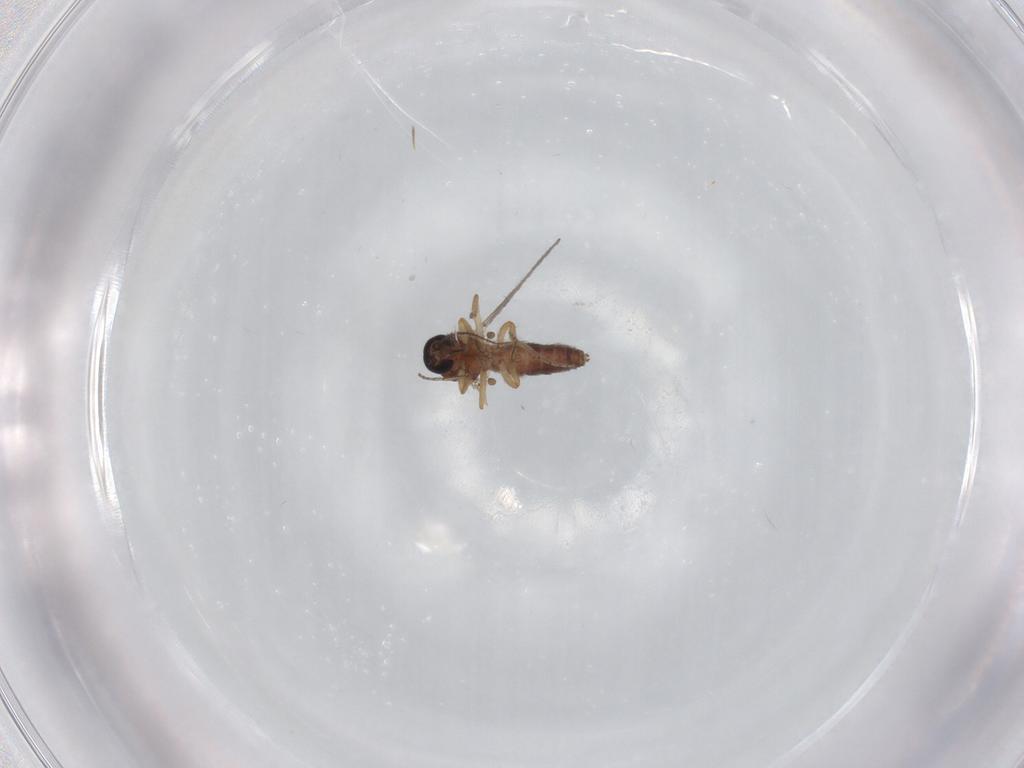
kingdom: Animalia
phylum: Arthropoda
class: Insecta
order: Diptera
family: Ceratopogonidae
